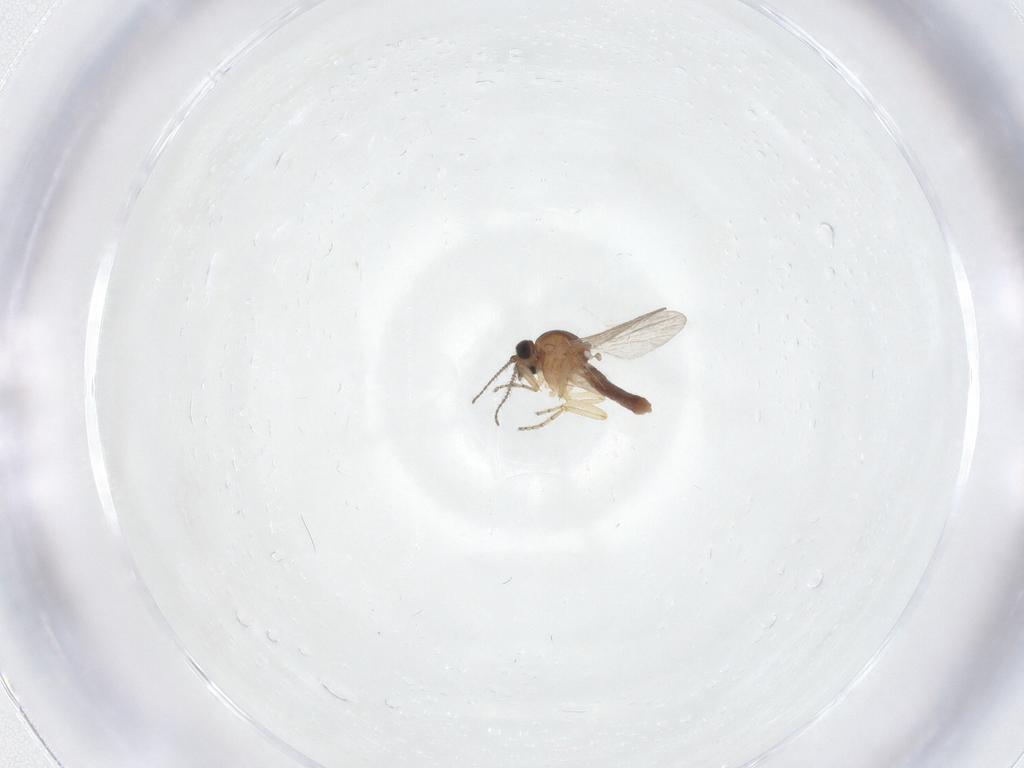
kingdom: Animalia
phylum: Arthropoda
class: Insecta
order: Diptera
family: Ceratopogonidae
